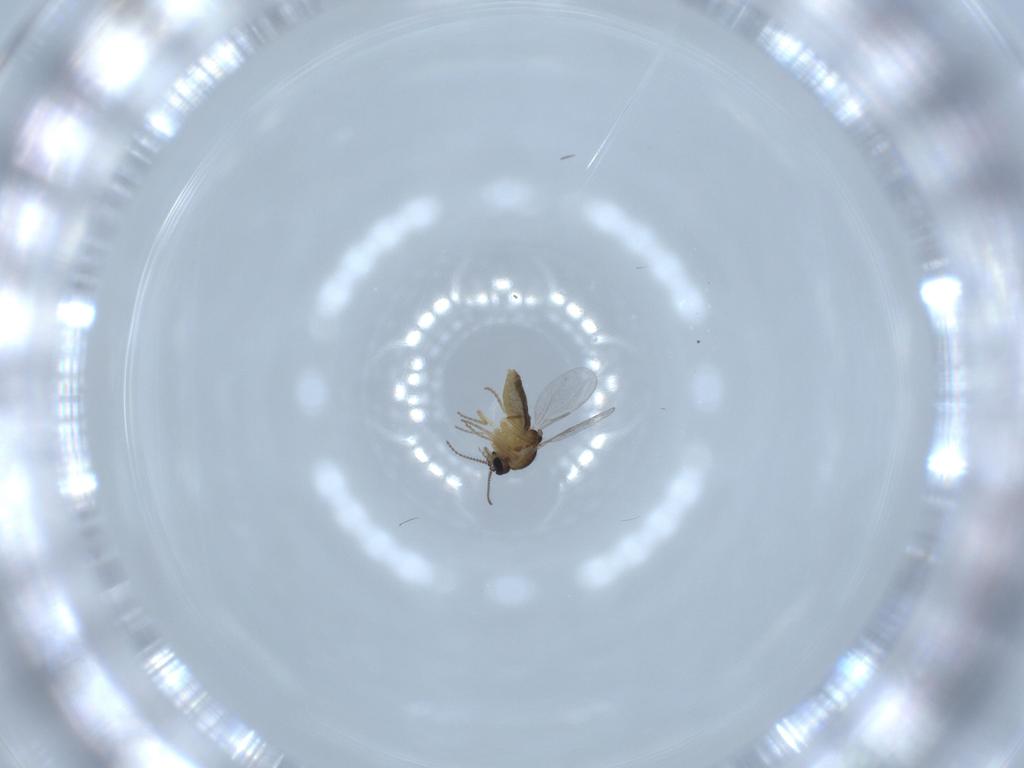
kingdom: Animalia
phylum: Arthropoda
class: Insecta
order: Diptera
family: Ceratopogonidae
